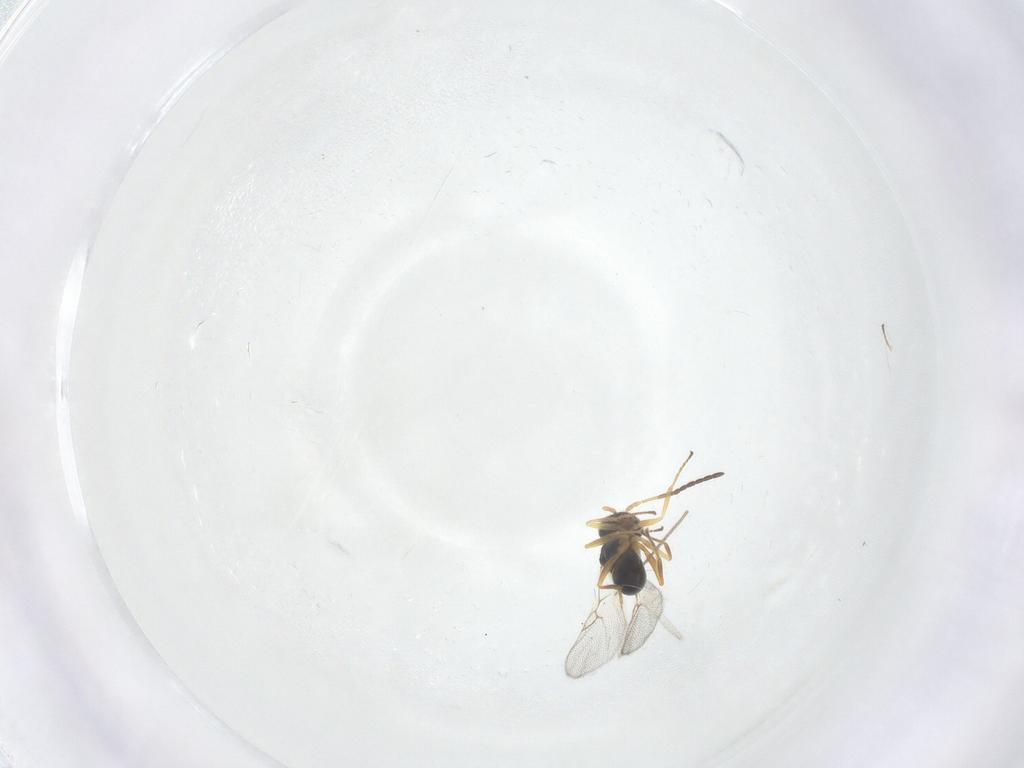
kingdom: Animalia
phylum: Arthropoda
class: Insecta
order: Hymenoptera
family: Figitidae
